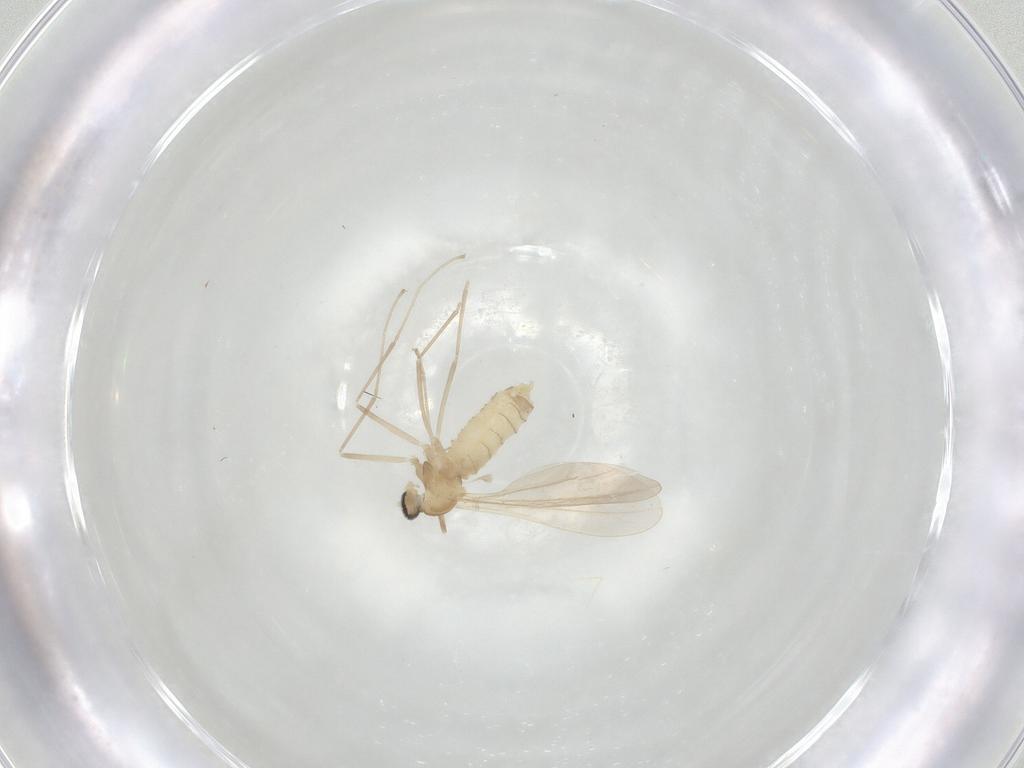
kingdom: Animalia
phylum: Arthropoda
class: Insecta
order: Diptera
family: Cecidomyiidae
